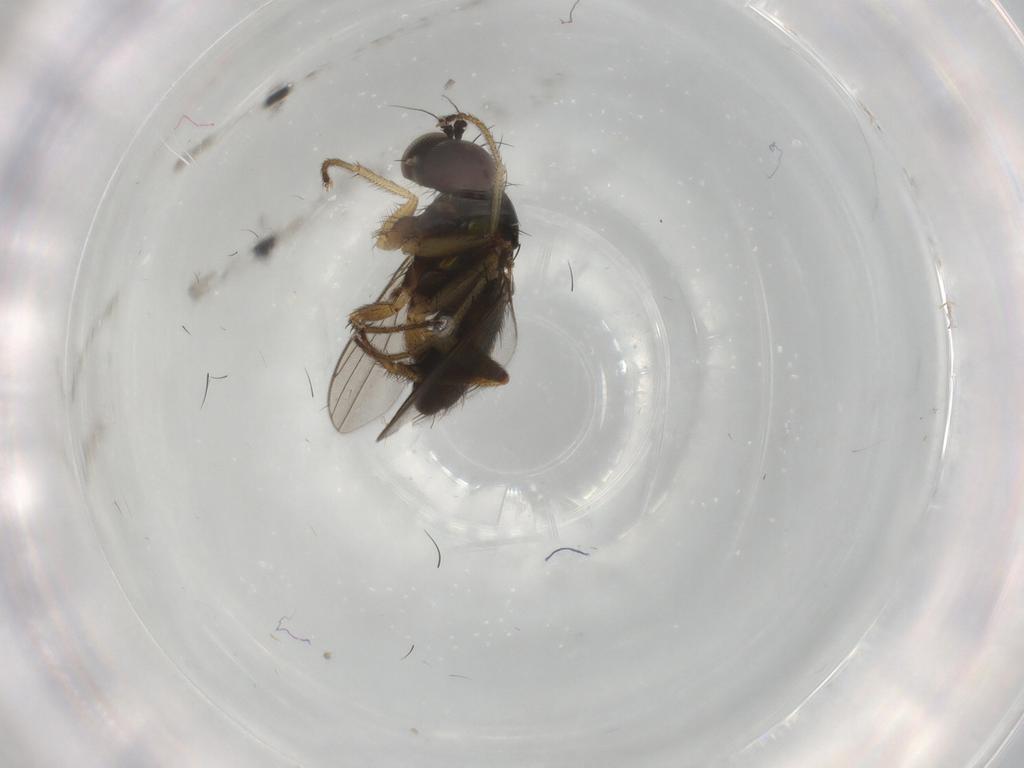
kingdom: Animalia
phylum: Arthropoda
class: Insecta
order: Diptera
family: Dolichopodidae
